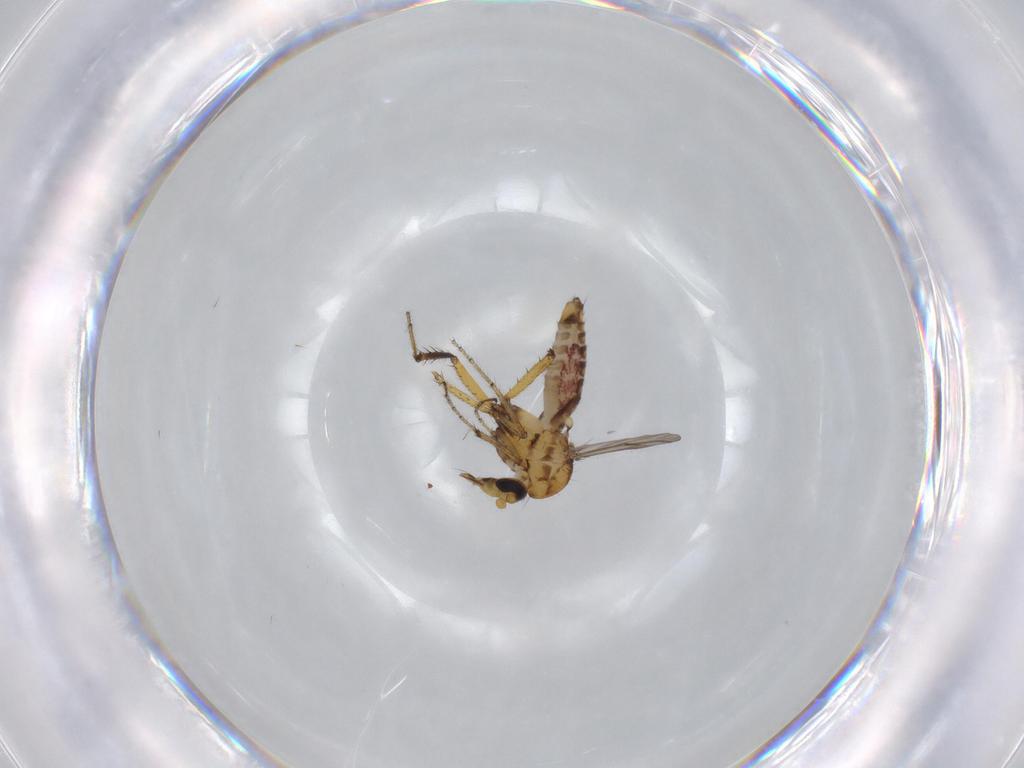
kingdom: Animalia
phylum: Arthropoda
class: Insecta
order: Diptera
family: Ceratopogonidae
